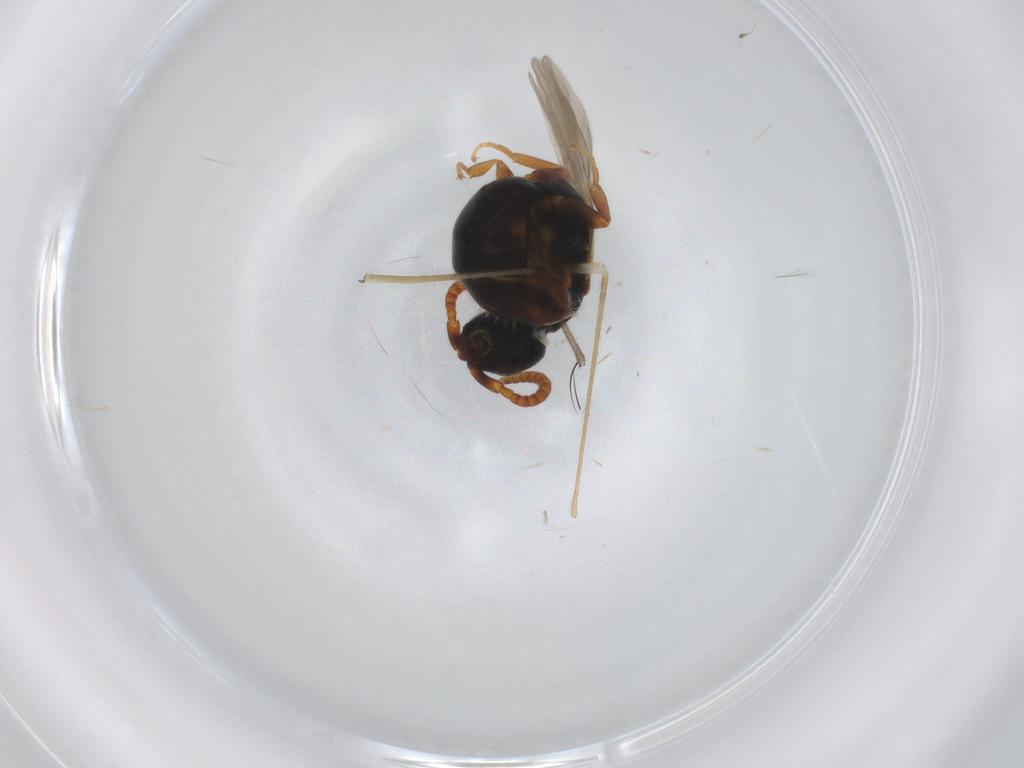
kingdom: Animalia
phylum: Arthropoda
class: Insecta
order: Hymenoptera
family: Bethylidae
